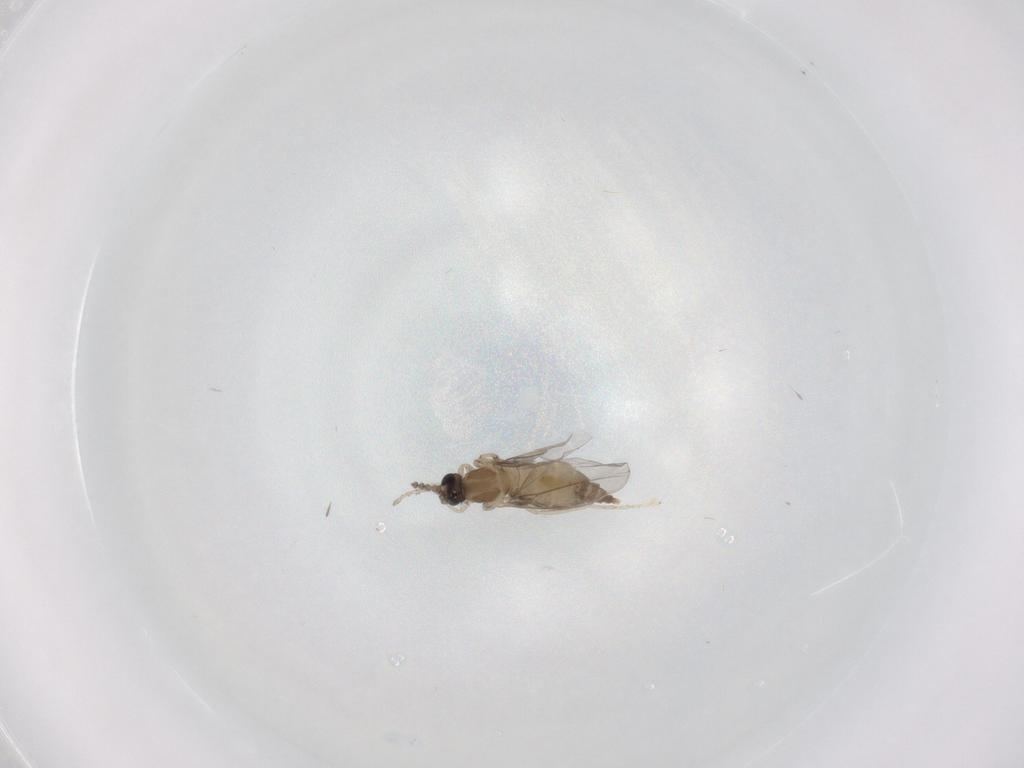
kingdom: Animalia
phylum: Arthropoda
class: Insecta
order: Diptera
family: Cecidomyiidae
